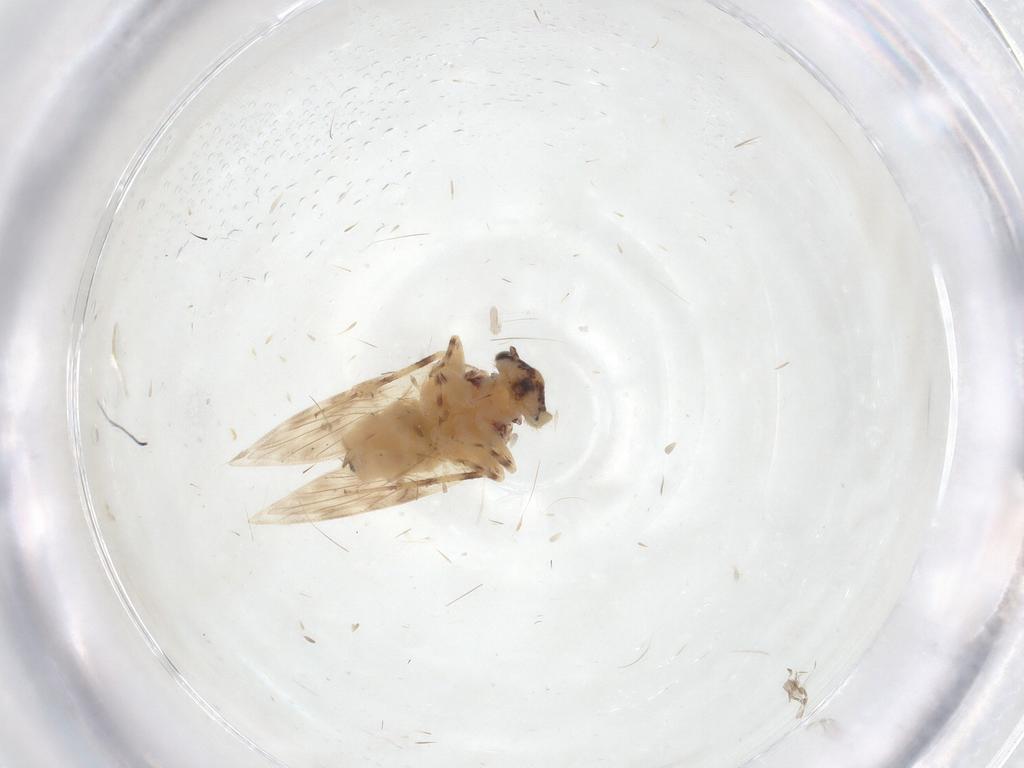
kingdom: Animalia
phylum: Arthropoda
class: Insecta
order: Psocodea
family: Lepidopsocidae
